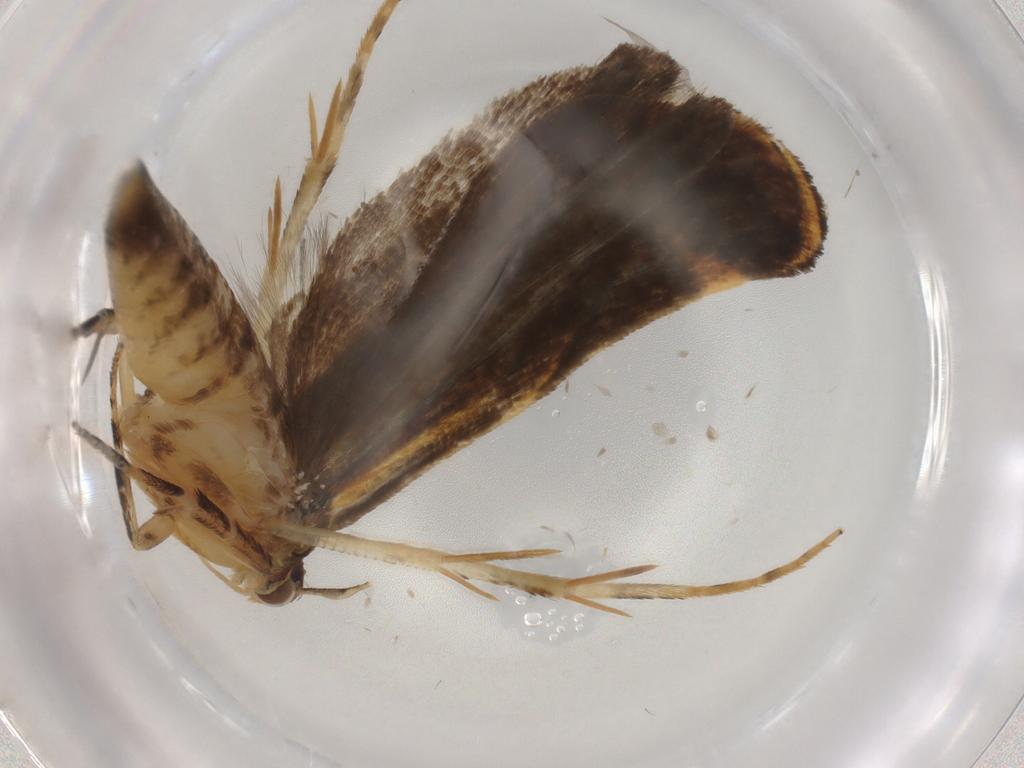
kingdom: Animalia
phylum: Arthropoda
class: Insecta
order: Lepidoptera
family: Gelechiidae
